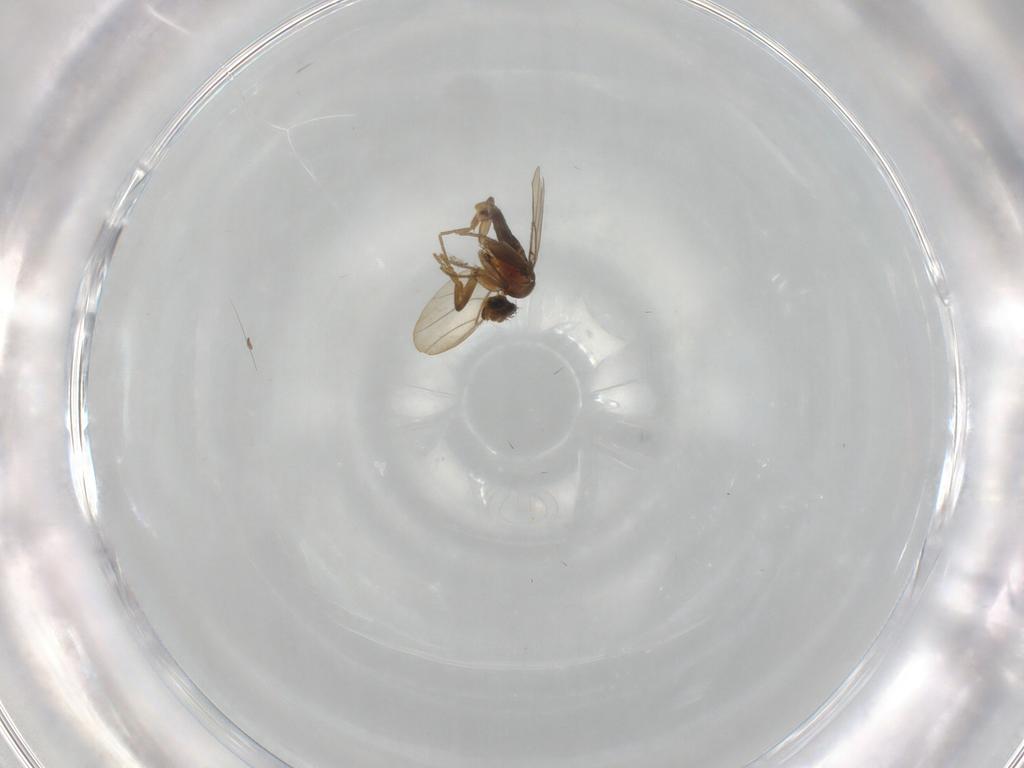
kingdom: Animalia
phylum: Arthropoda
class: Insecta
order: Diptera
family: Sciaridae
